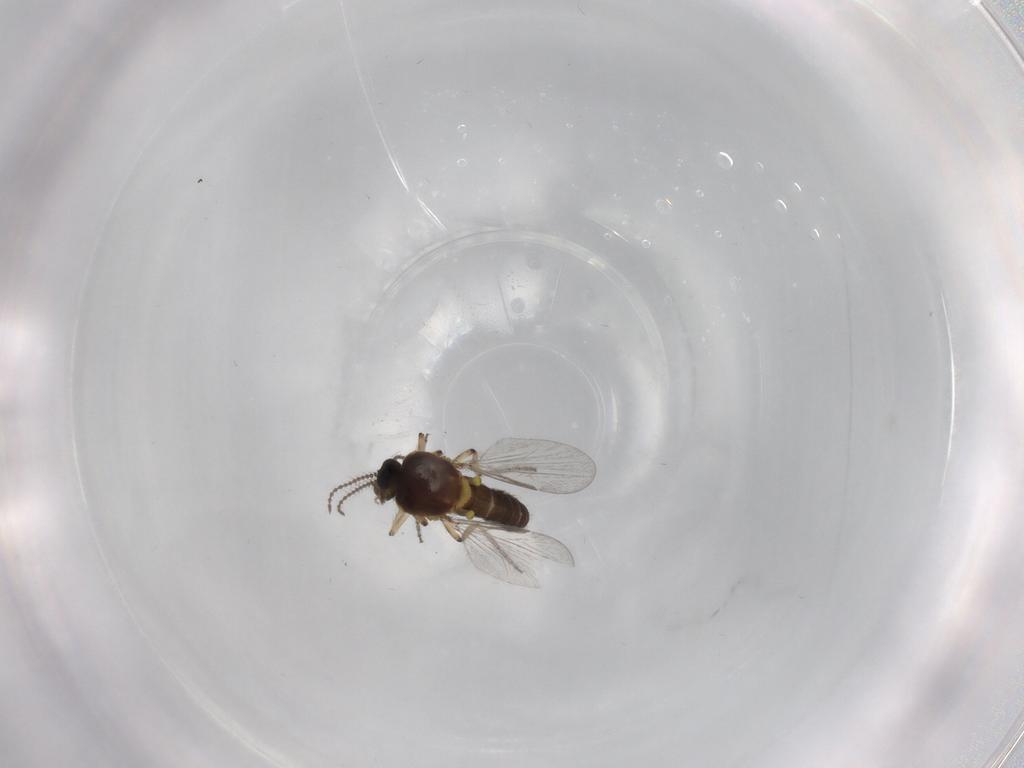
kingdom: Animalia
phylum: Arthropoda
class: Insecta
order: Diptera
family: Ceratopogonidae
